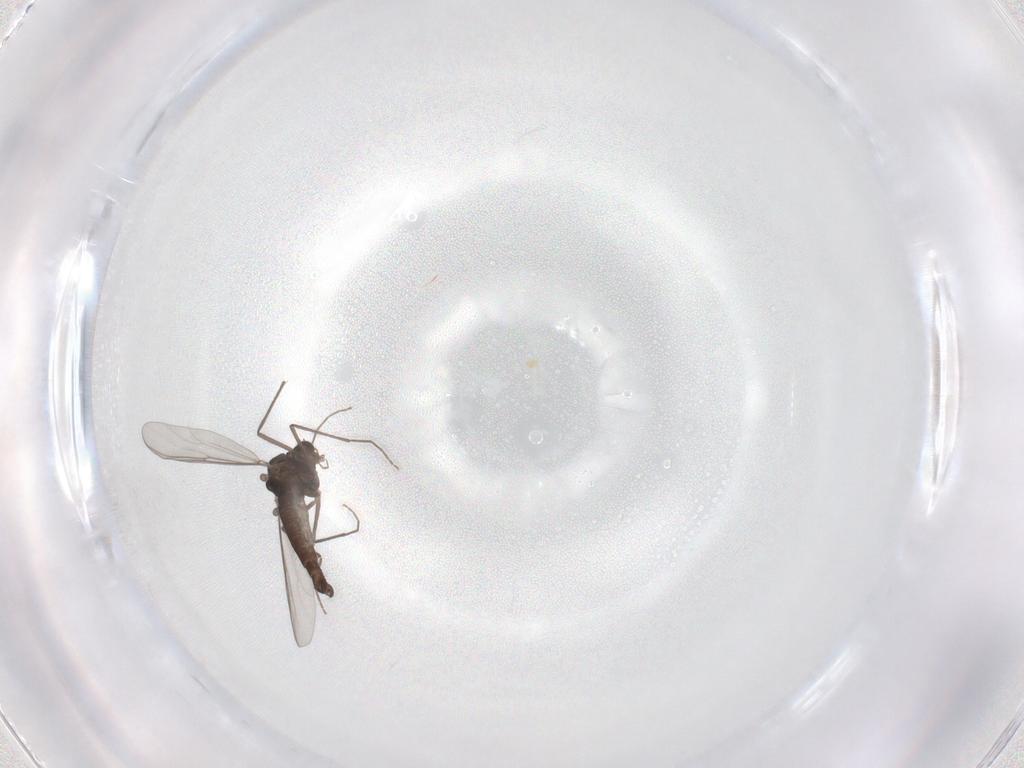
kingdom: Animalia
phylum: Arthropoda
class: Insecta
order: Diptera
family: Chironomidae
